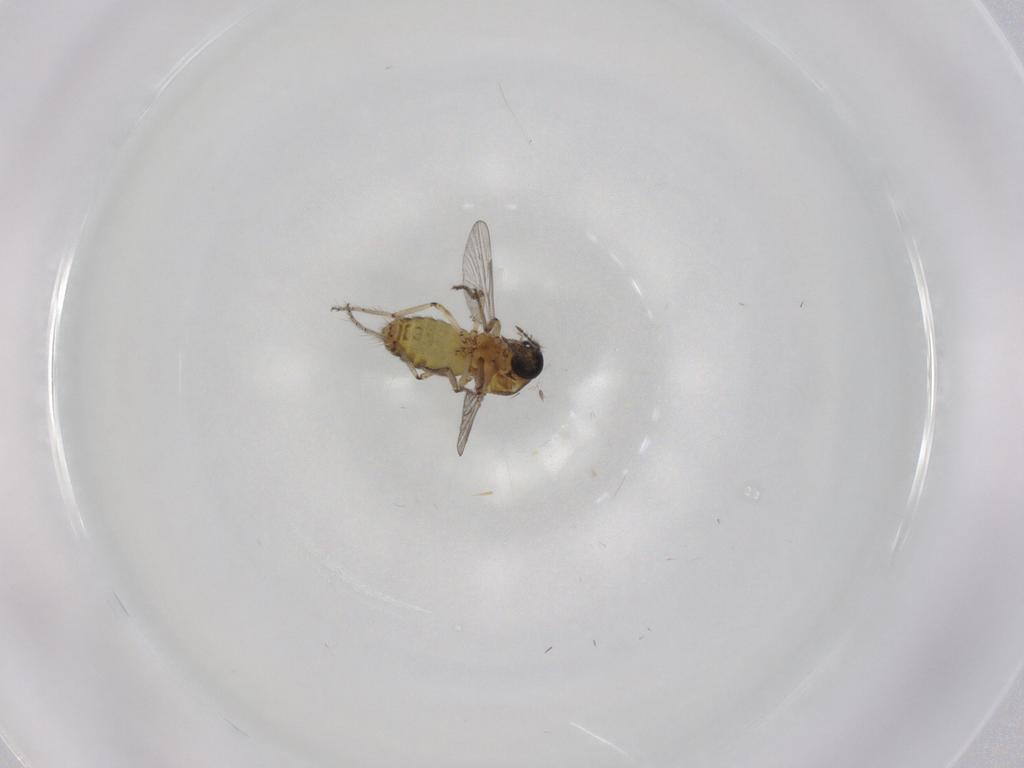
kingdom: Animalia
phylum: Arthropoda
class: Insecta
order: Diptera
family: Ceratopogonidae
